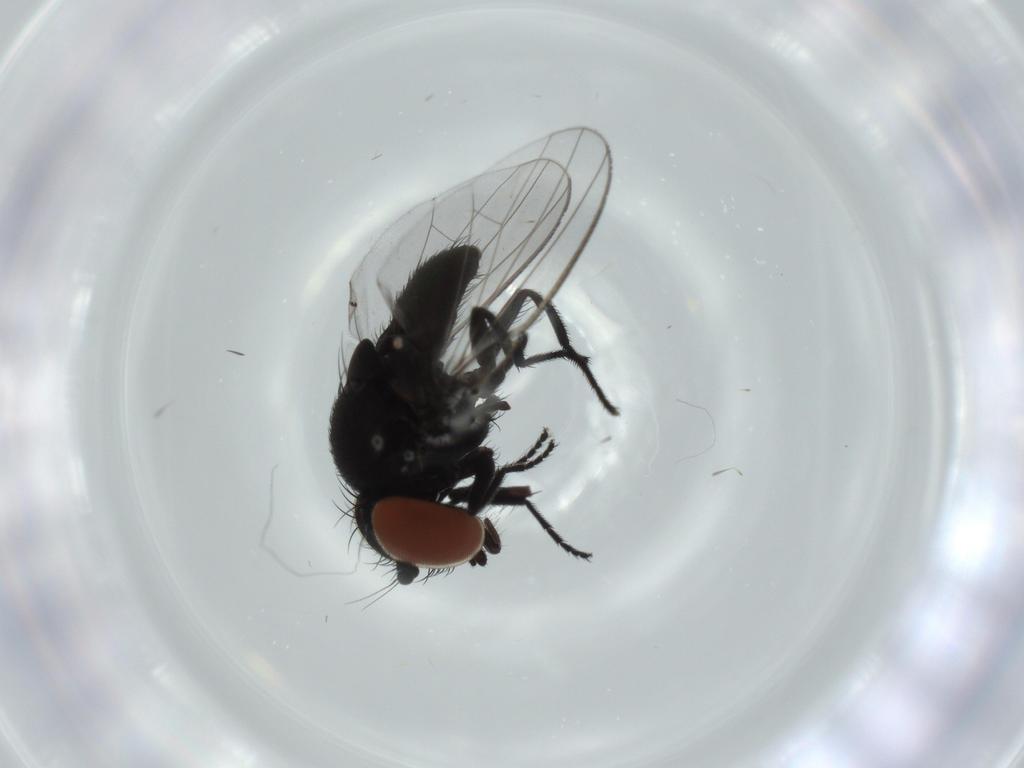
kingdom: Animalia
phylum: Arthropoda
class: Insecta
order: Diptera
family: Milichiidae
